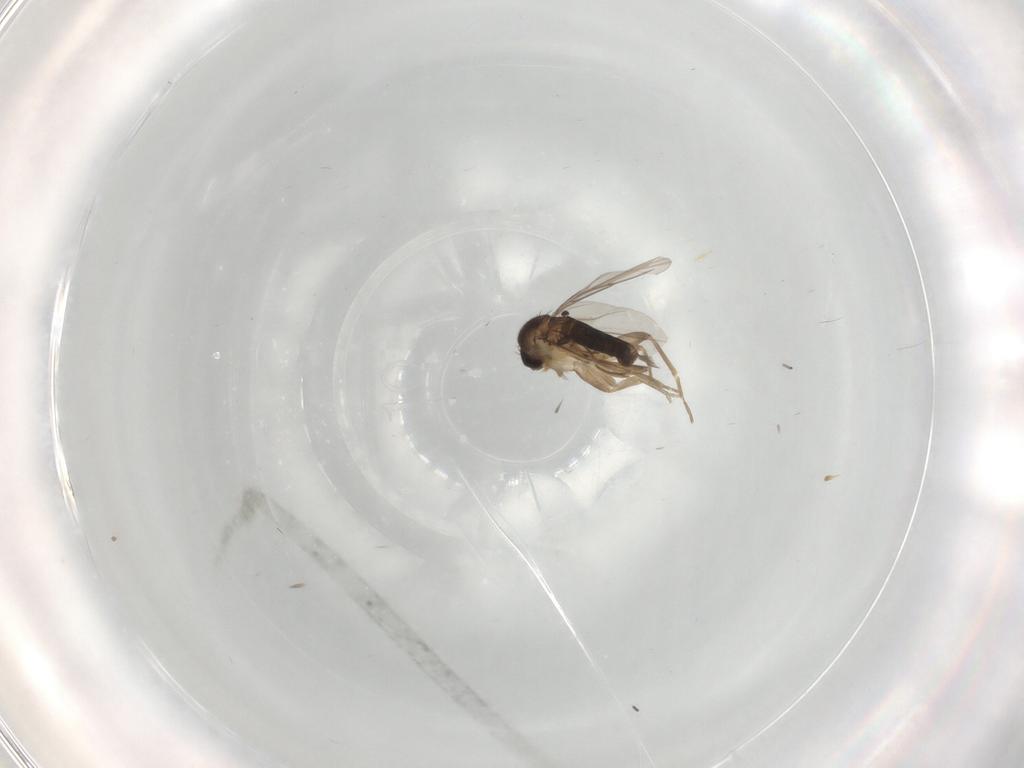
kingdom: Animalia
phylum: Arthropoda
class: Insecta
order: Diptera
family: Phoridae
